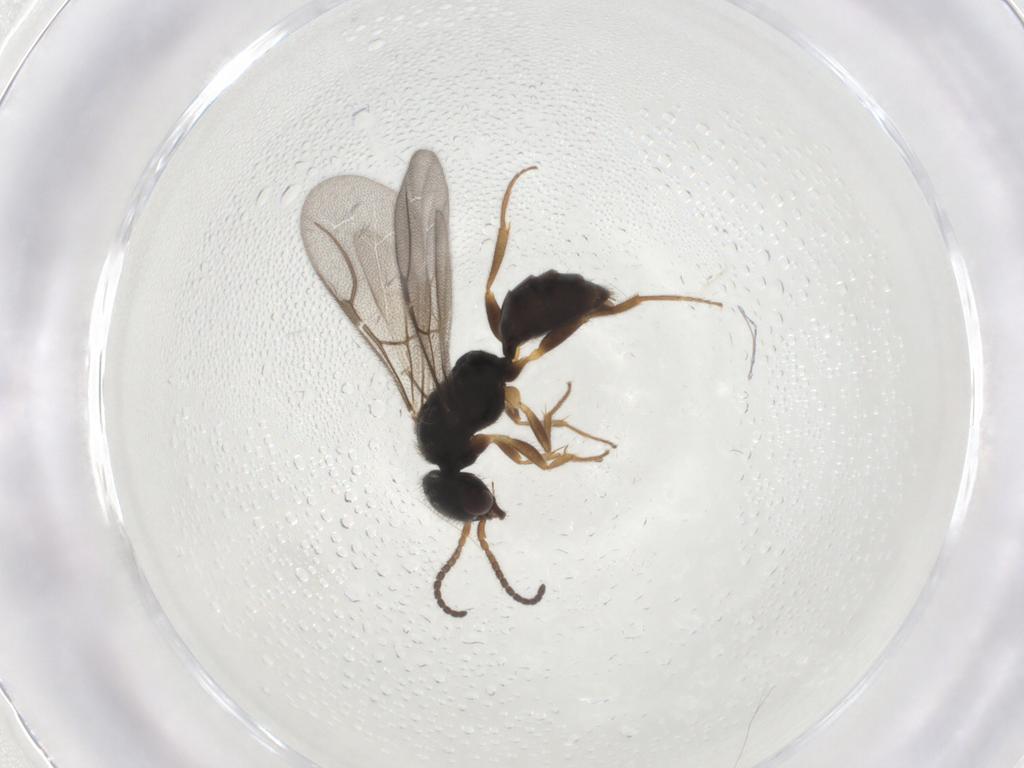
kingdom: Animalia
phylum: Arthropoda
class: Insecta
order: Hymenoptera
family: Bethylidae
